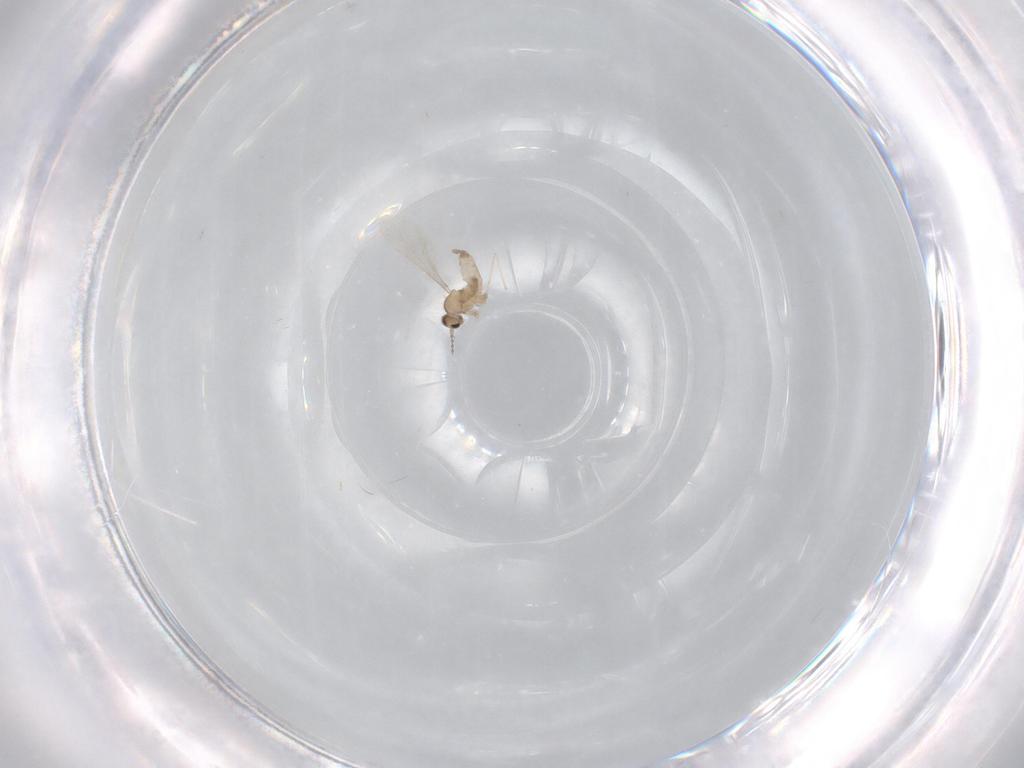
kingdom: Animalia
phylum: Arthropoda
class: Insecta
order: Diptera
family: Cecidomyiidae
